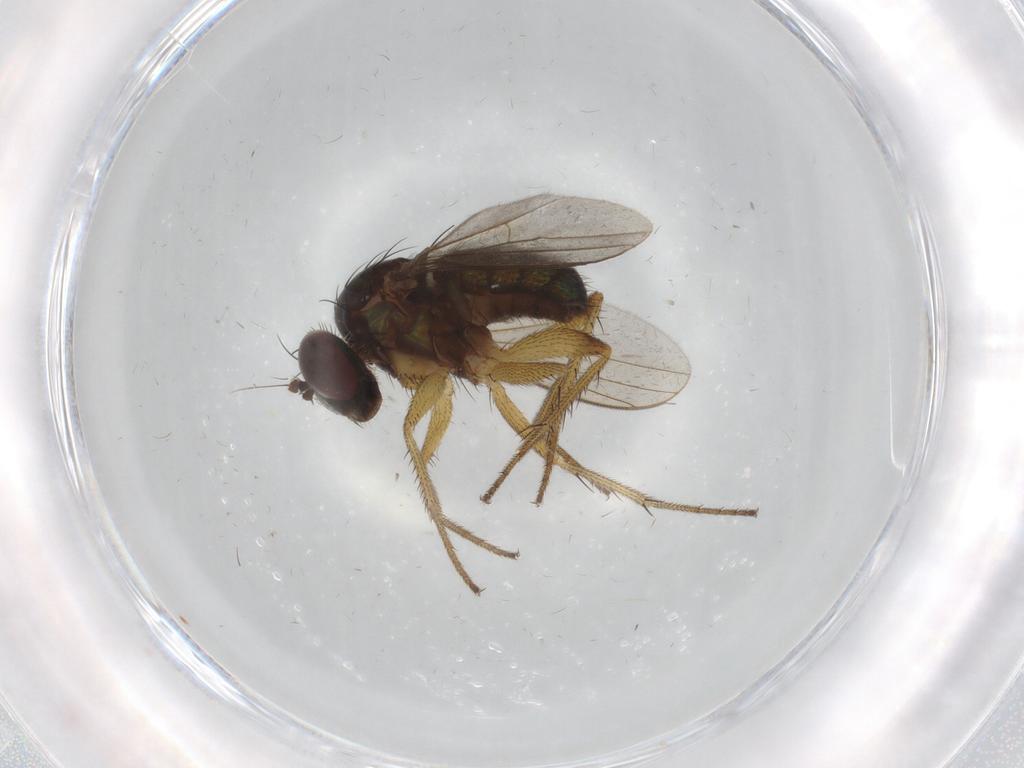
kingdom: Animalia
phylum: Arthropoda
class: Insecta
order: Diptera
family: Dolichopodidae
